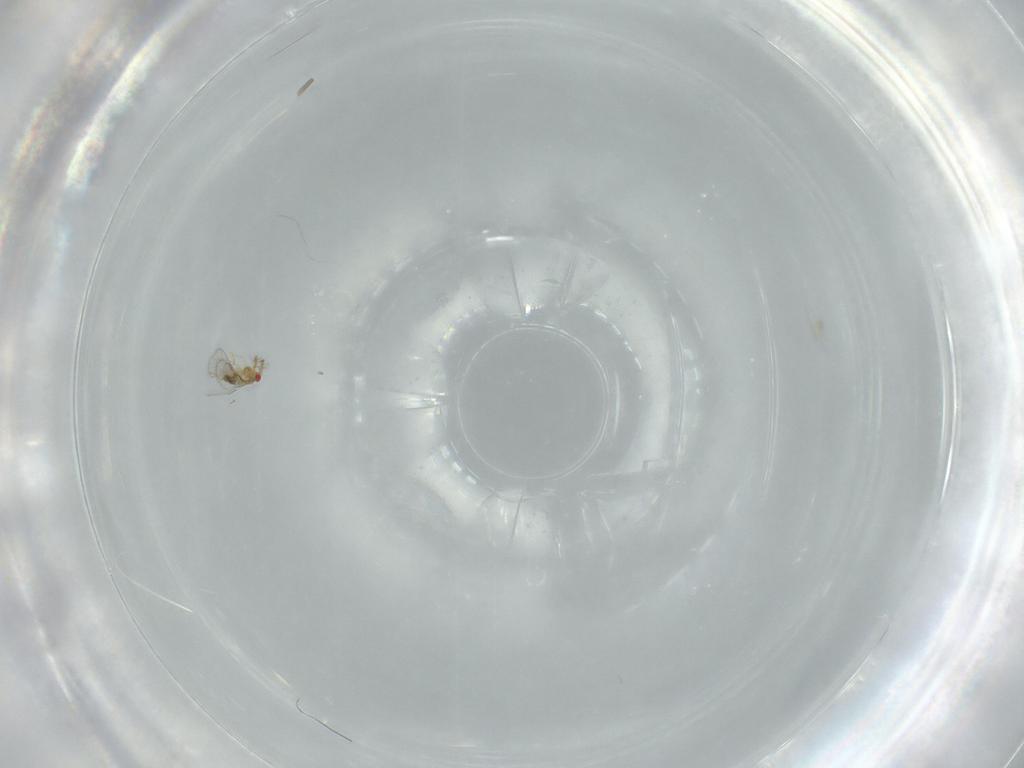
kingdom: Animalia
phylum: Arthropoda
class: Insecta
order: Hymenoptera
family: Trichogrammatidae
